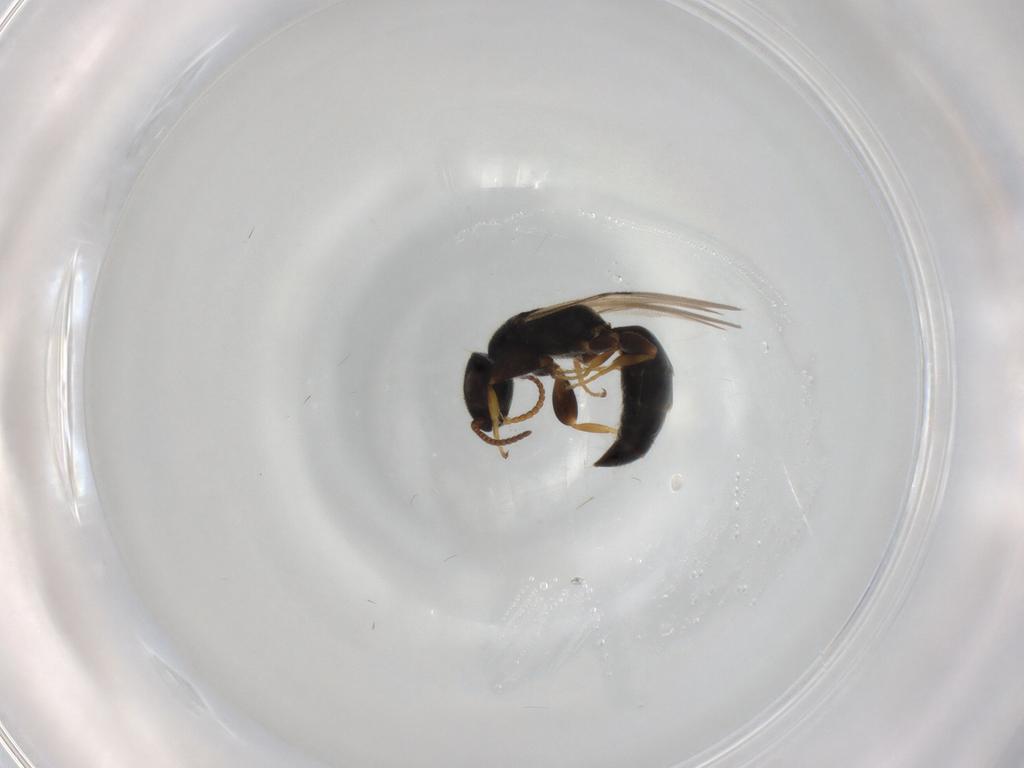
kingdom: Animalia
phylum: Arthropoda
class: Insecta
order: Hymenoptera
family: Bethylidae
